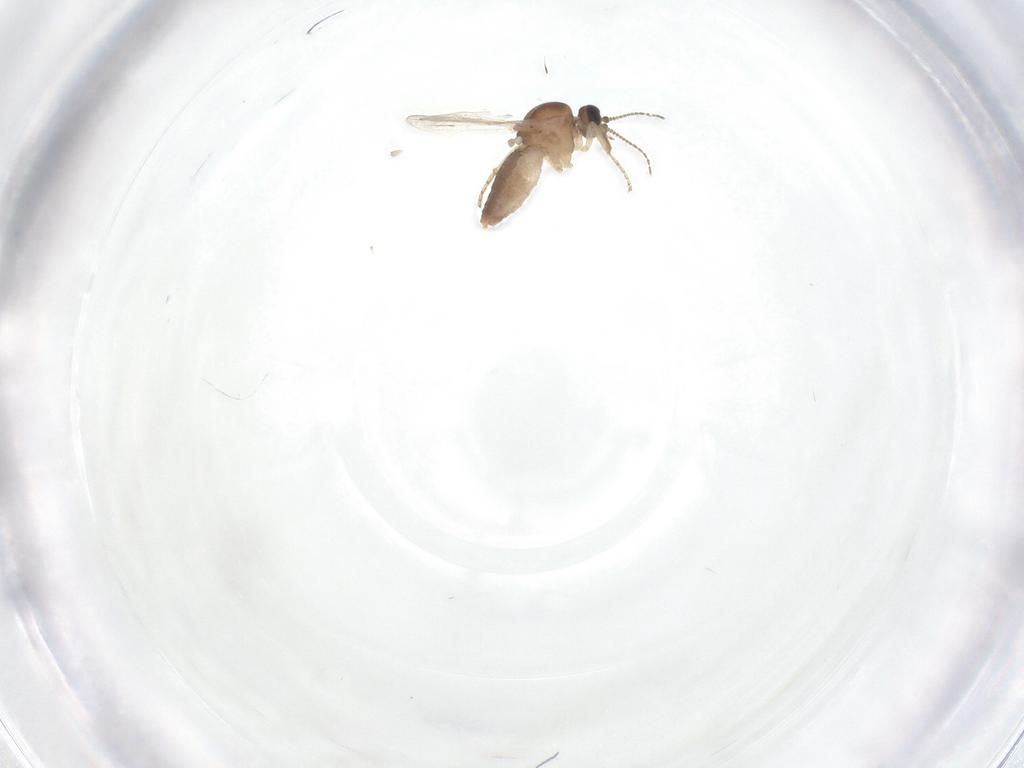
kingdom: Animalia
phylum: Arthropoda
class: Insecta
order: Diptera
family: Ceratopogonidae
